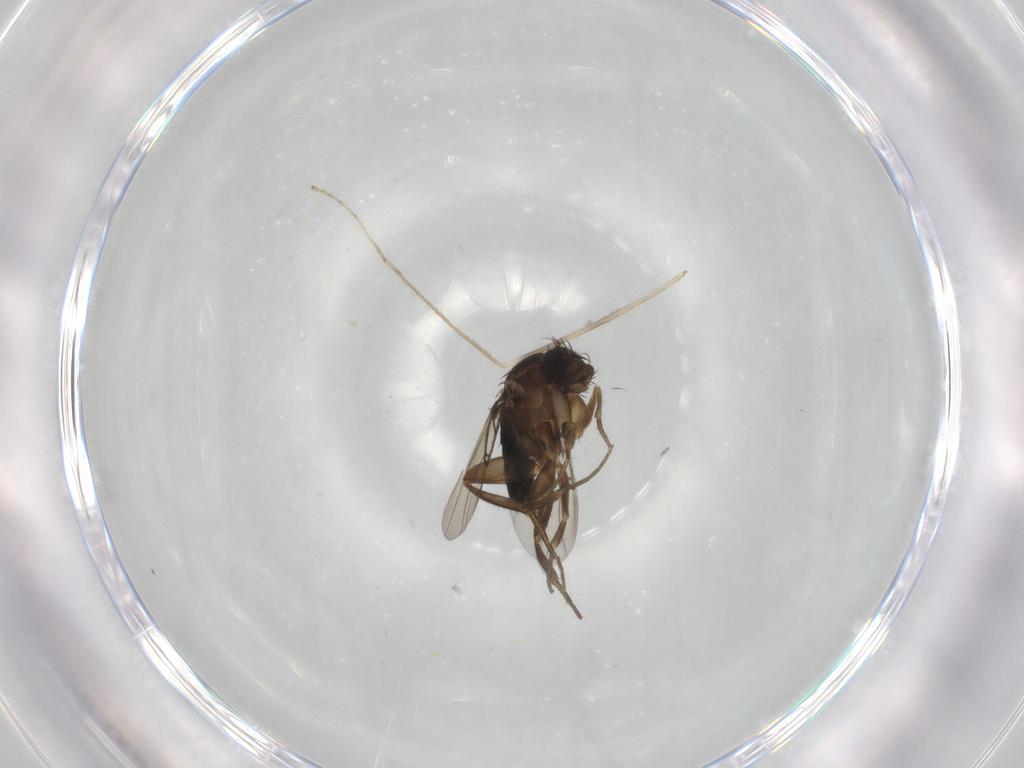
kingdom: Animalia
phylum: Arthropoda
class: Insecta
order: Diptera
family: Phoridae
